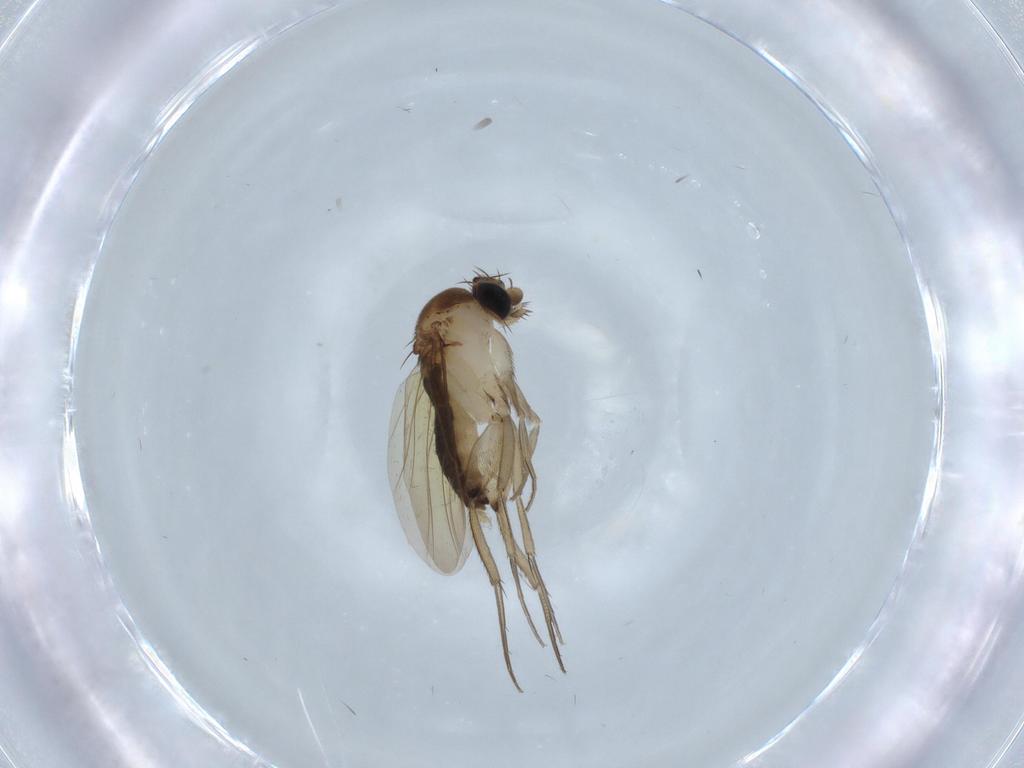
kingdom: Animalia
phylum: Arthropoda
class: Insecta
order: Diptera
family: Phoridae
